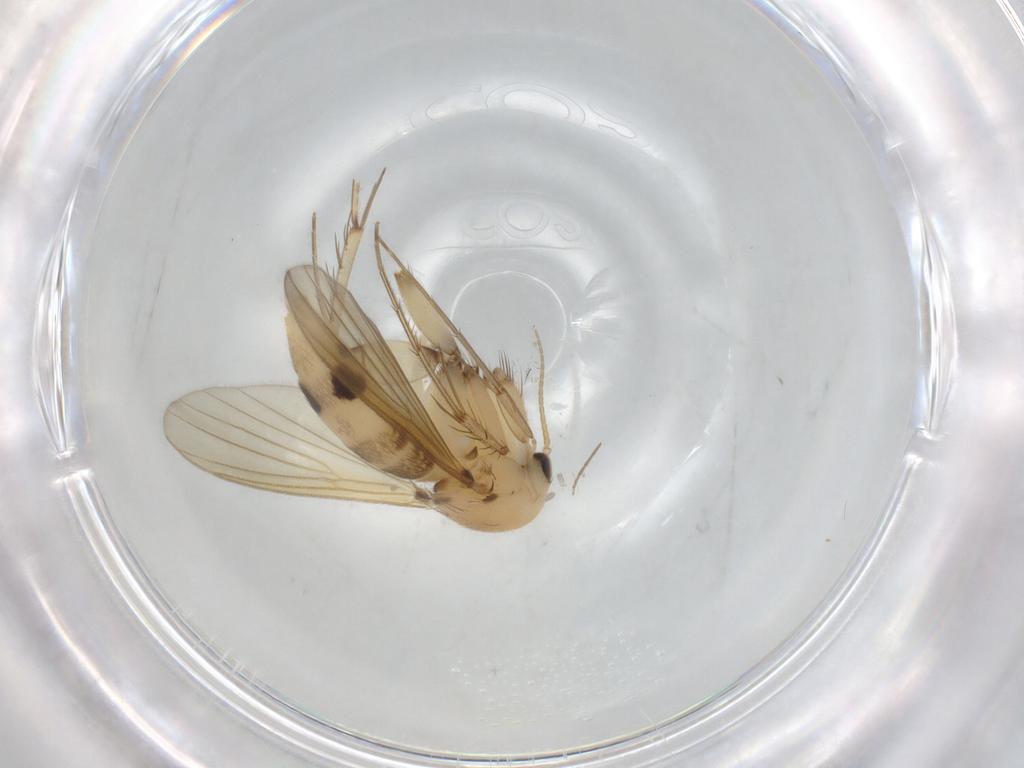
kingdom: Animalia
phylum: Arthropoda
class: Insecta
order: Diptera
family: Mycetophilidae
